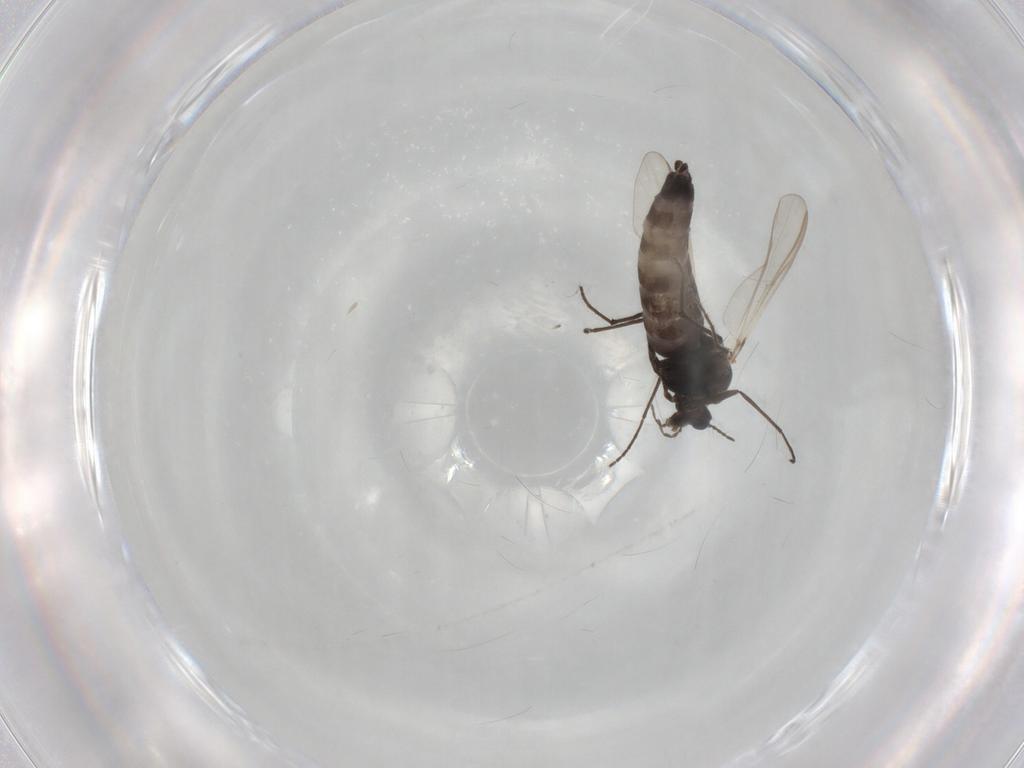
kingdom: Animalia
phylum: Arthropoda
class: Insecta
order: Diptera
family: Chironomidae
